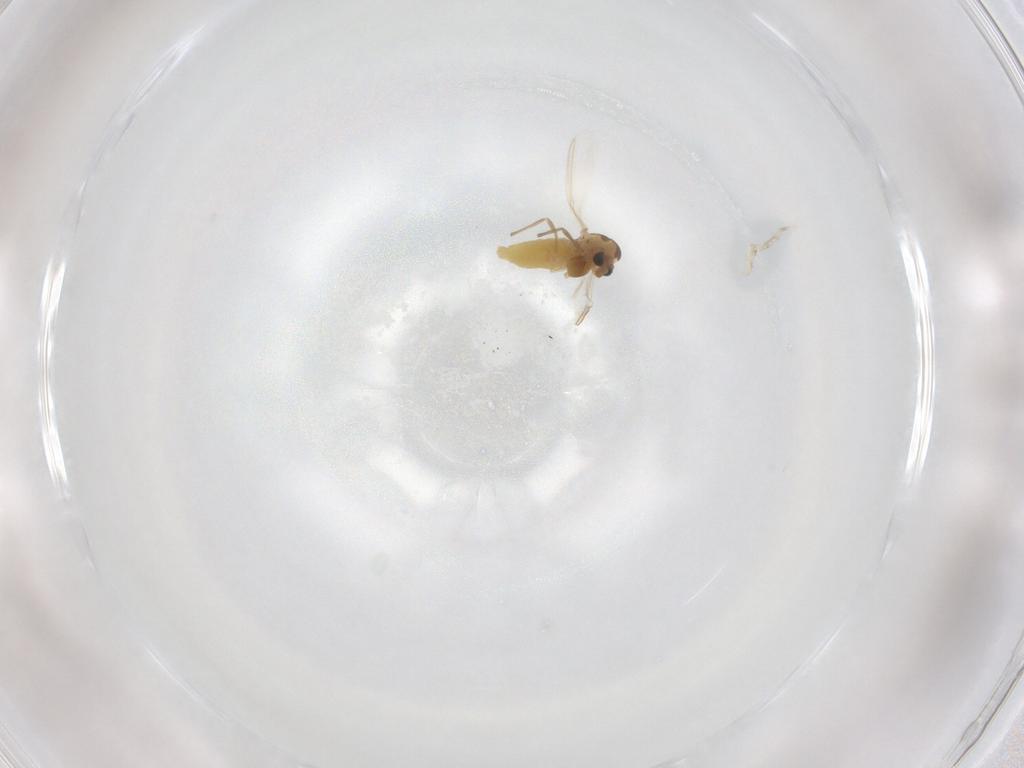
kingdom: Animalia
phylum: Arthropoda
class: Insecta
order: Diptera
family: Chironomidae
